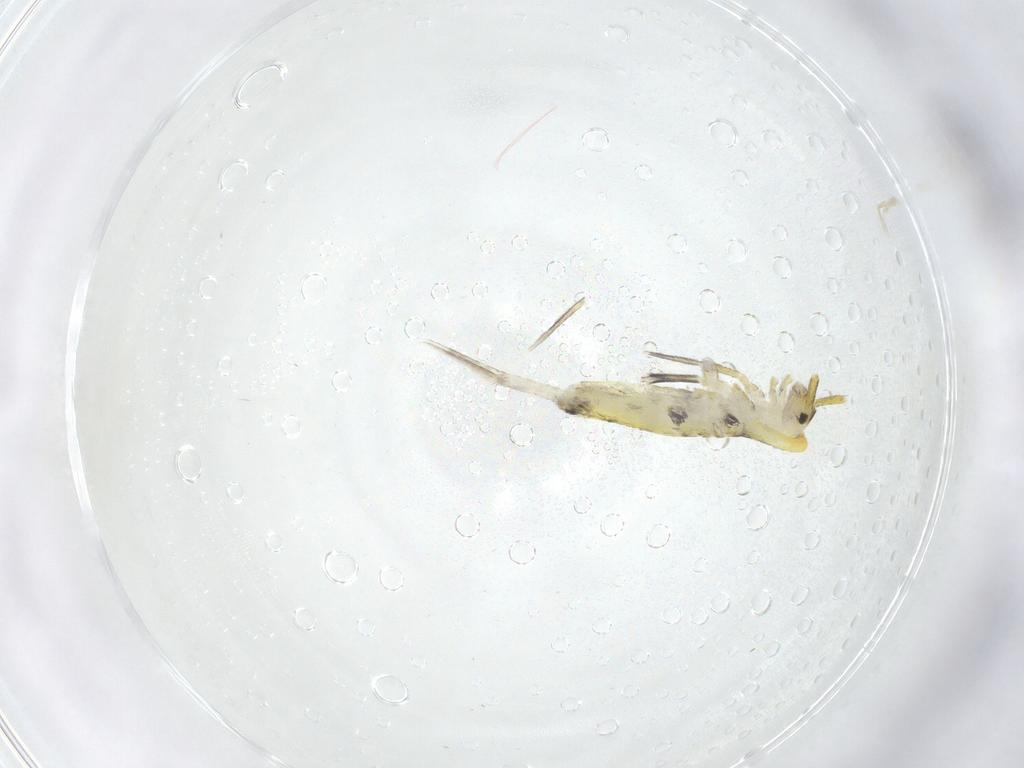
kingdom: Animalia
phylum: Arthropoda
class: Collembola
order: Entomobryomorpha
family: Entomobryidae
